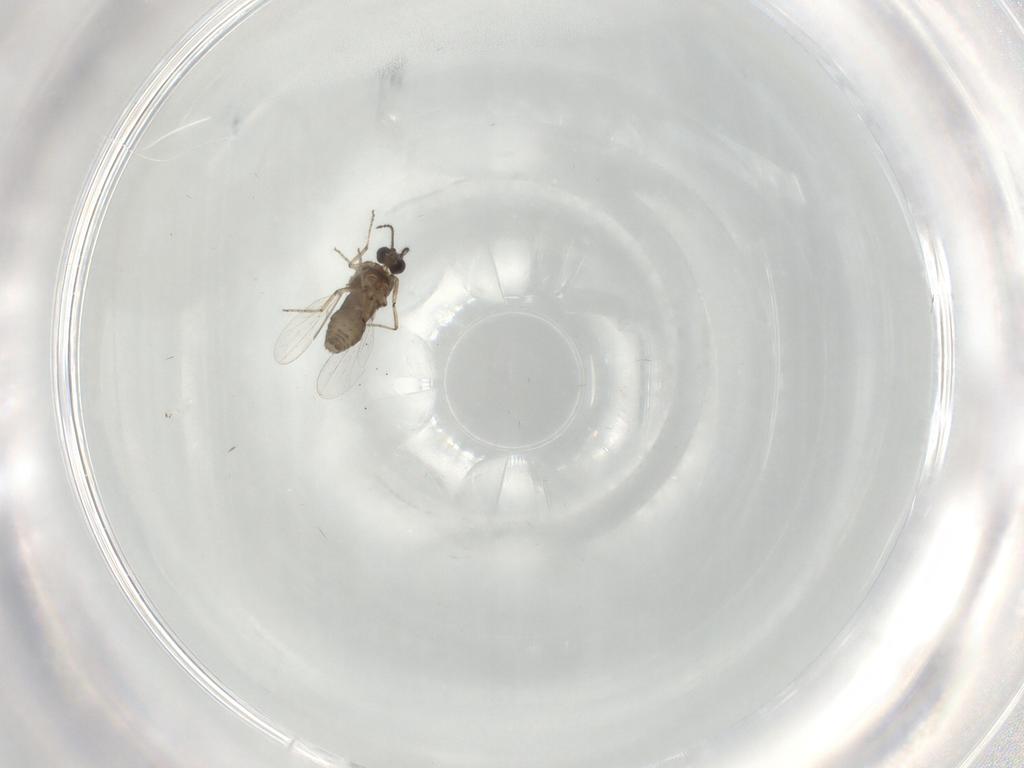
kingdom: Animalia
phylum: Arthropoda
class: Insecta
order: Diptera
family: Ceratopogonidae
